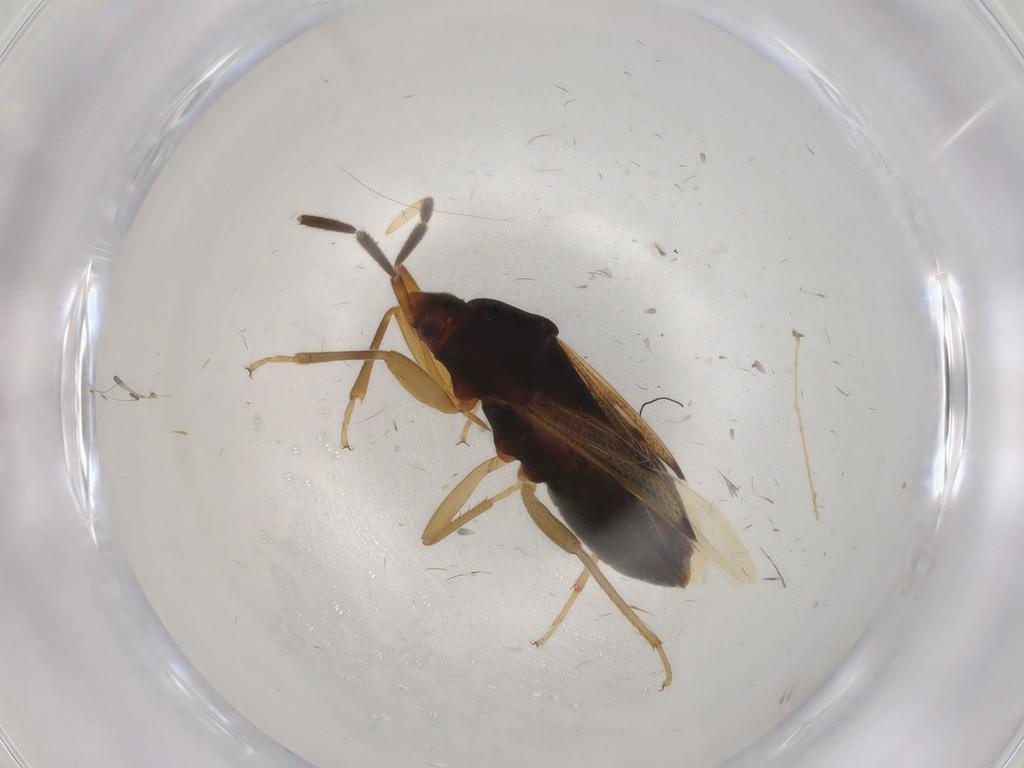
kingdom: Animalia
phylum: Arthropoda
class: Insecta
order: Hemiptera
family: Rhyparochromidae
